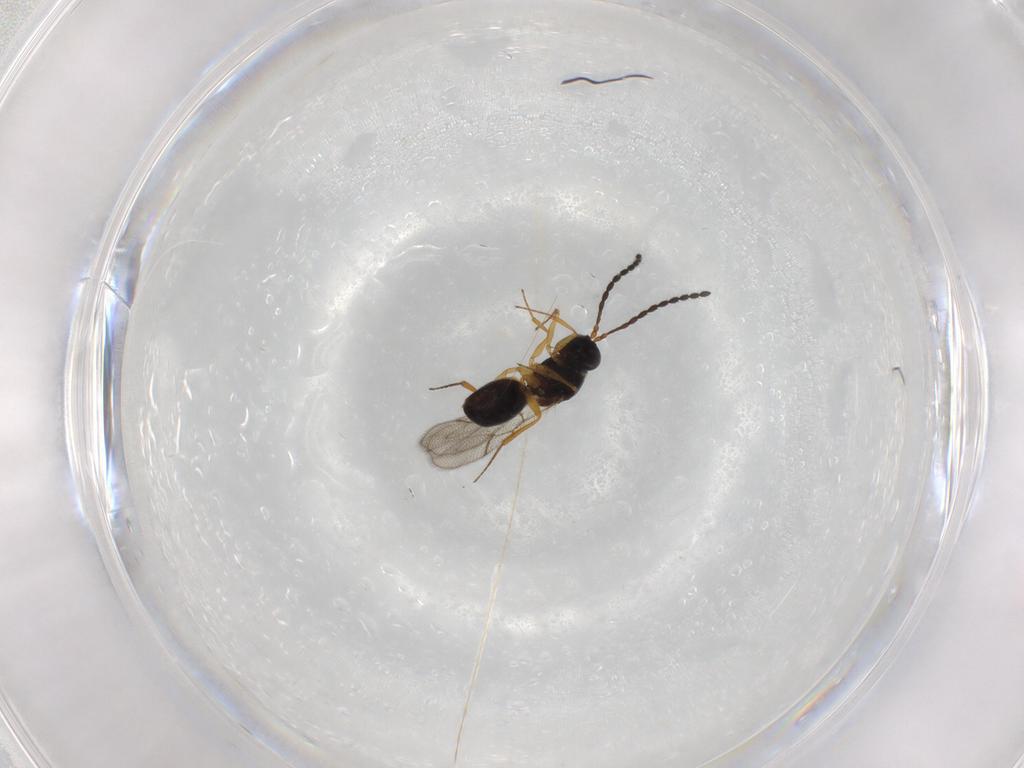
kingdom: Animalia
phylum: Arthropoda
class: Insecta
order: Hymenoptera
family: Figitidae
